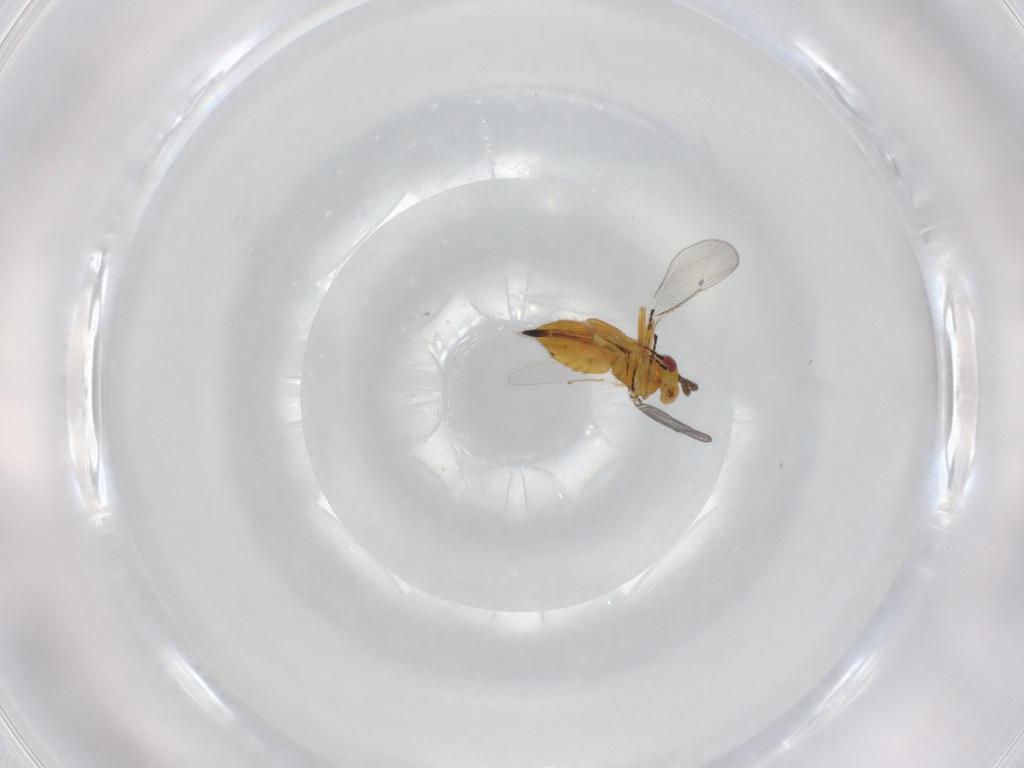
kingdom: Animalia
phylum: Arthropoda
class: Insecta
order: Hymenoptera
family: Eulophidae
